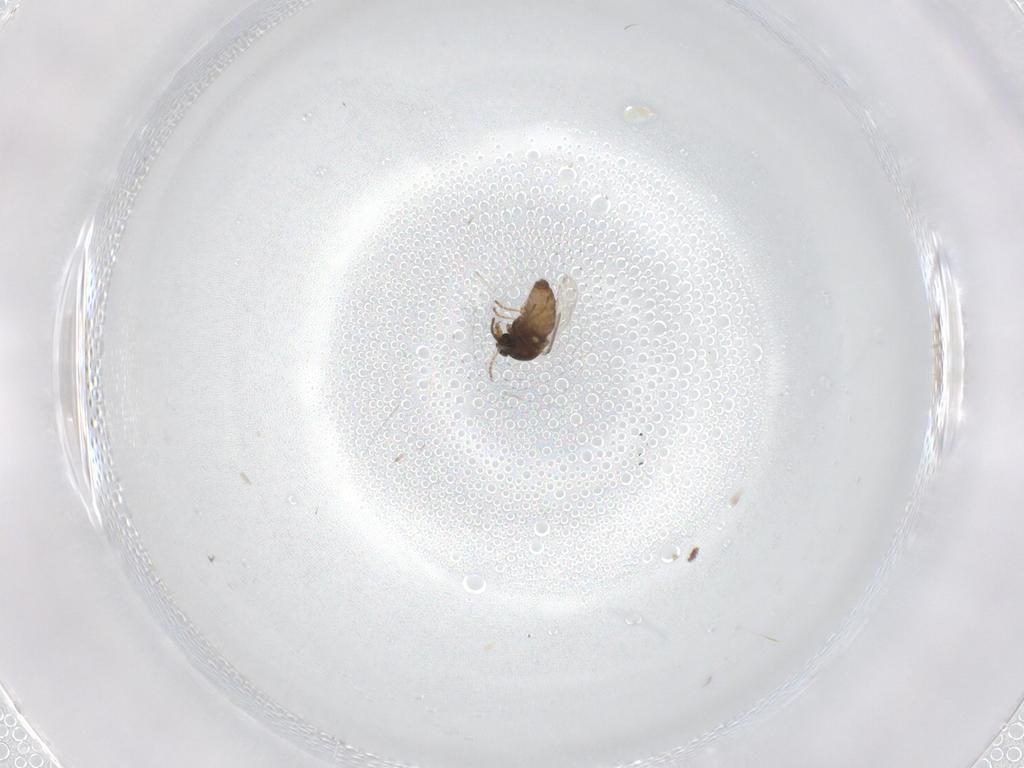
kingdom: Animalia
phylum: Arthropoda
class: Insecta
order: Diptera
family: Ceratopogonidae
